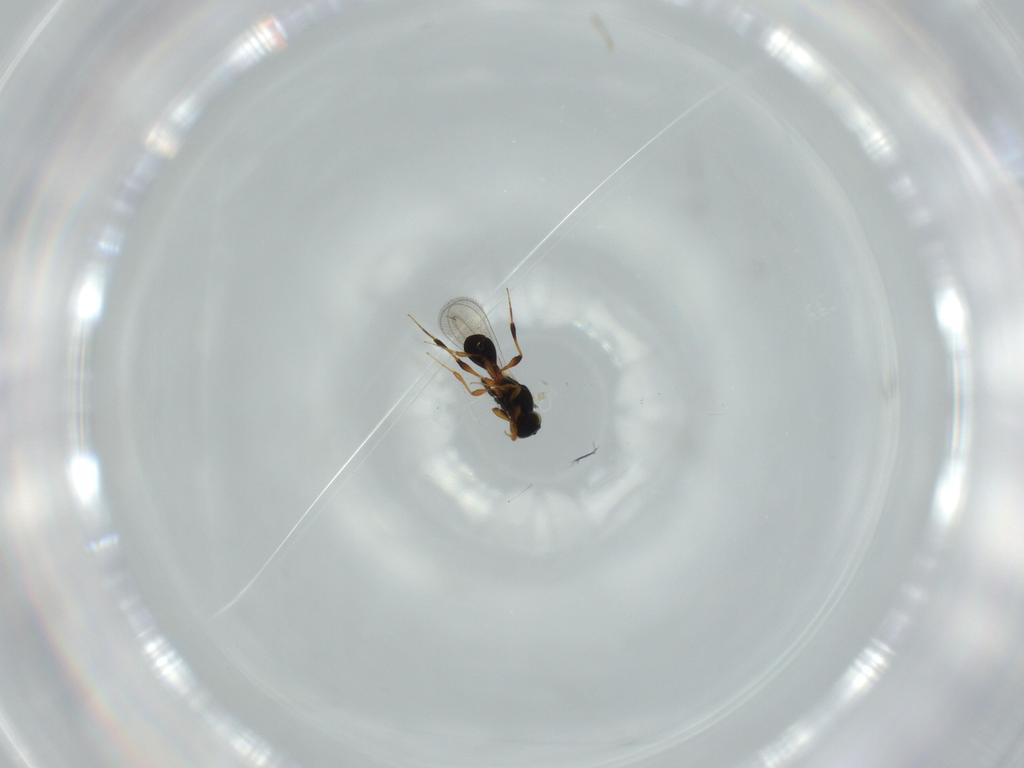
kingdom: Animalia
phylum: Arthropoda
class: Insecta
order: Hymenoptera
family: Platygastridae
